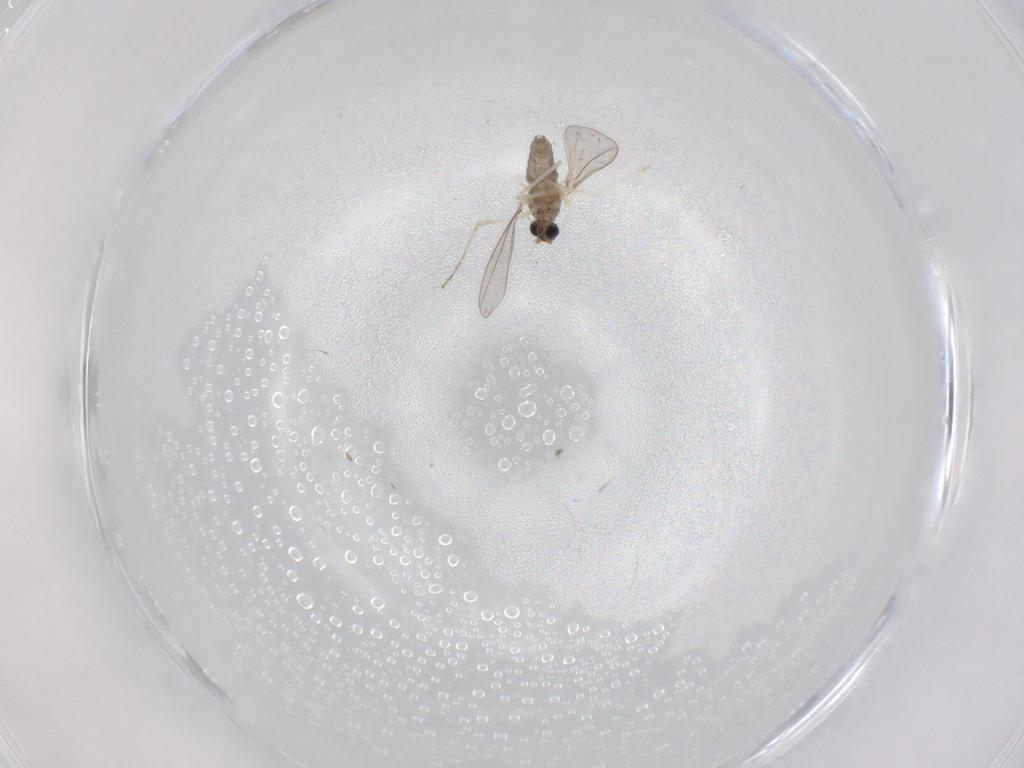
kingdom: Animalia
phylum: Arthropoda
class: Insecta
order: Diptera
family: Cecidomyiidae
